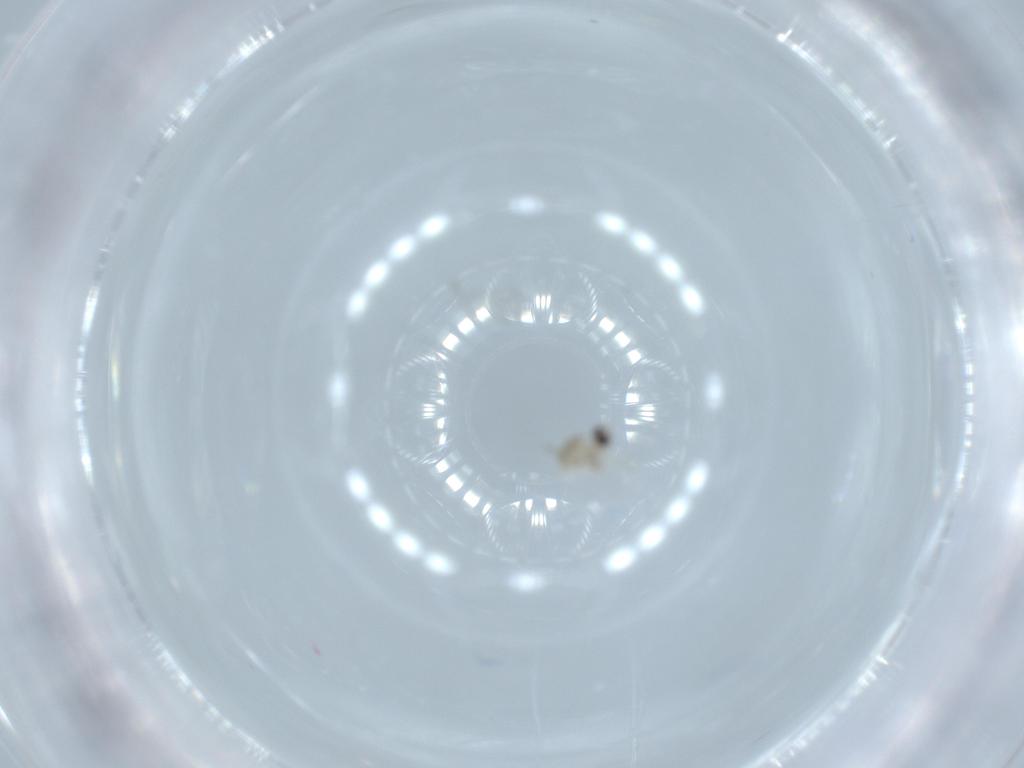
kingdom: Animalia
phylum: Arthropoda
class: Insecta
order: Diptera
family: Cecidomyiidae
